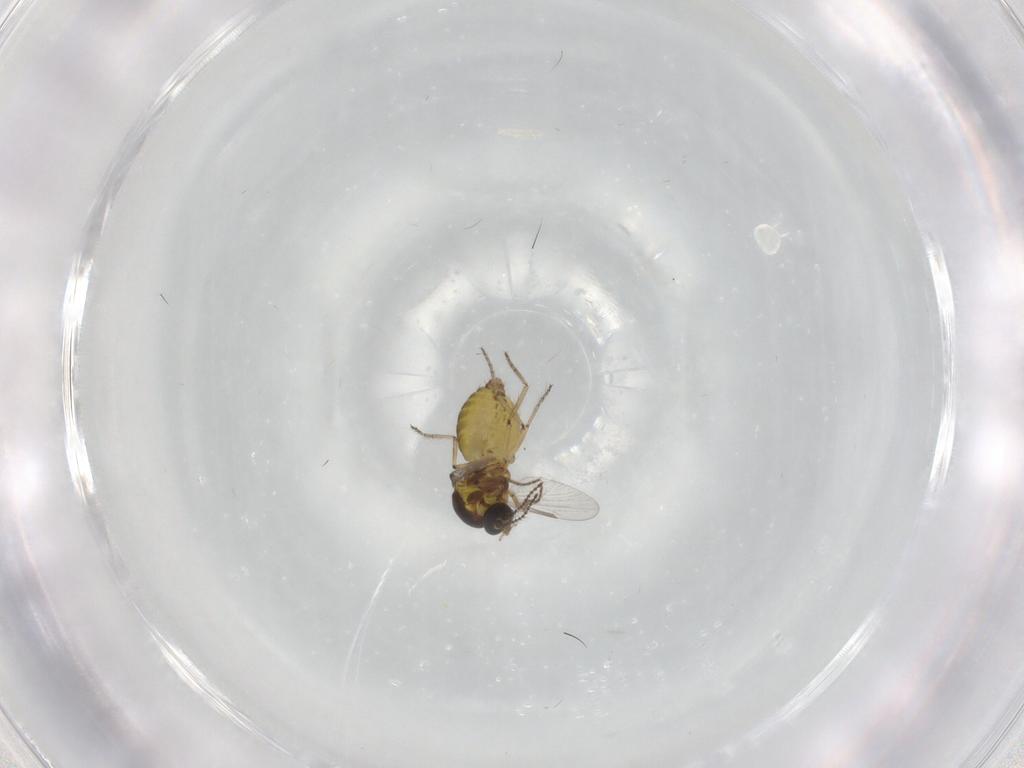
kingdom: Animalia
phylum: Arthropoda
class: Insecta
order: Diptera
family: Ceratopogonidae
